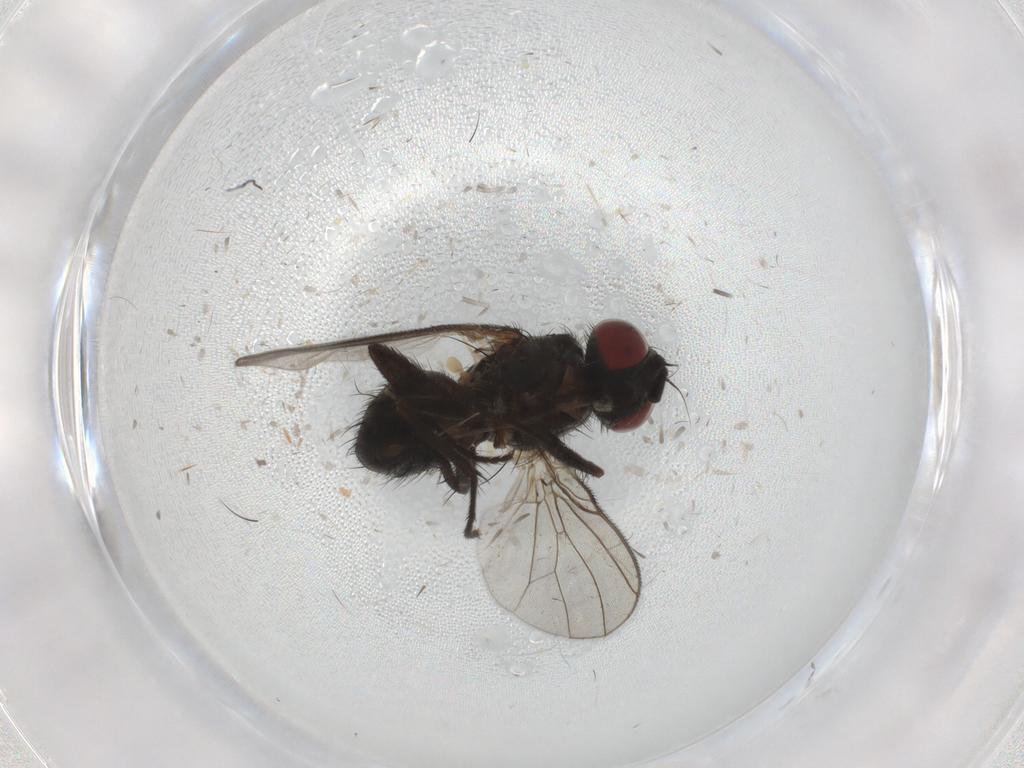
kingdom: Animalia
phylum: Arthropoda
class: Insecta
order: Diptera
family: Muscidae
